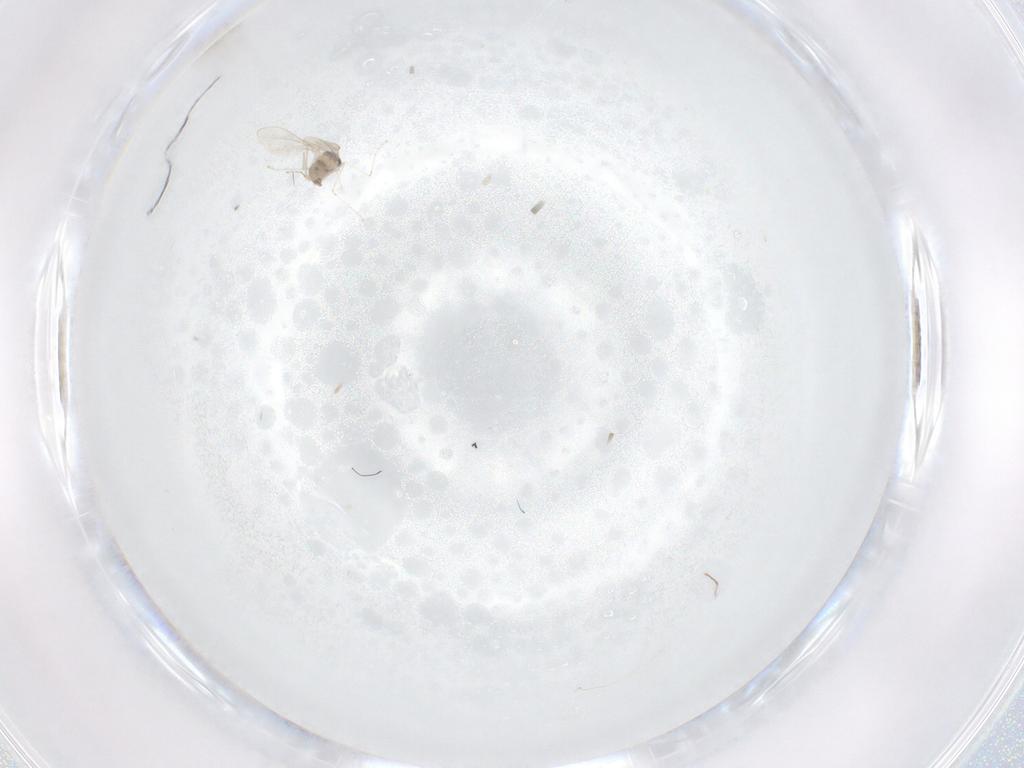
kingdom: Animalia
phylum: Arthropoda
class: Insecta
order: Diptera
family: Cecidomyiidae
